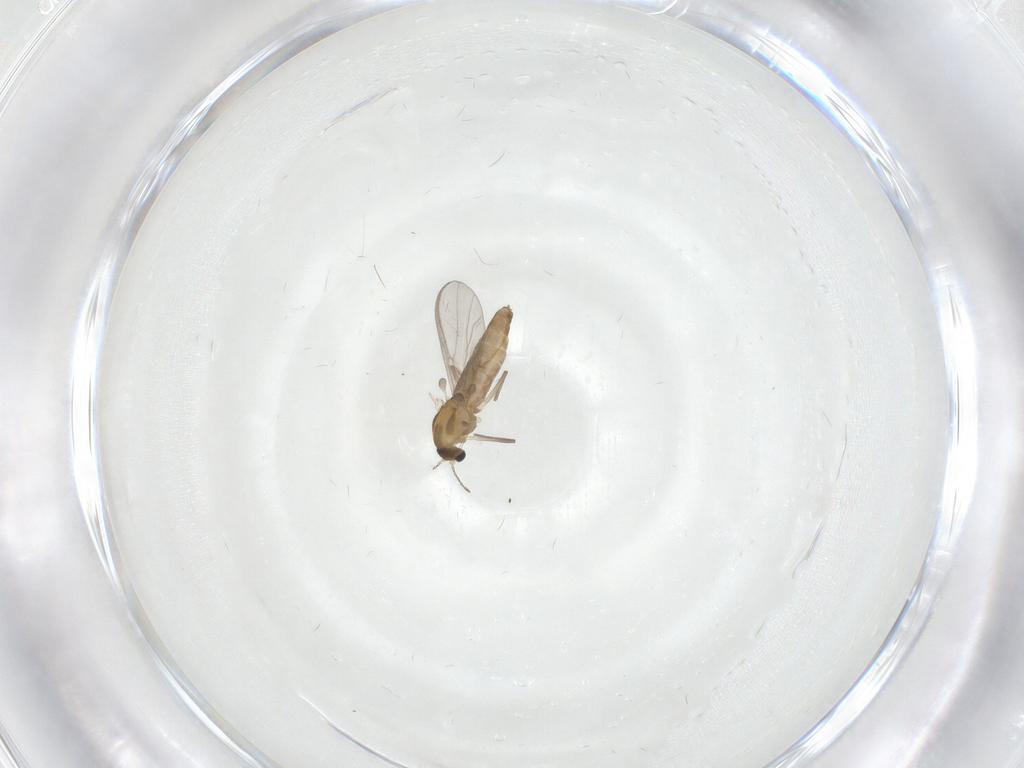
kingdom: Animalia
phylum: Arthropoda
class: Insecta
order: Diptera
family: Chironomidae
